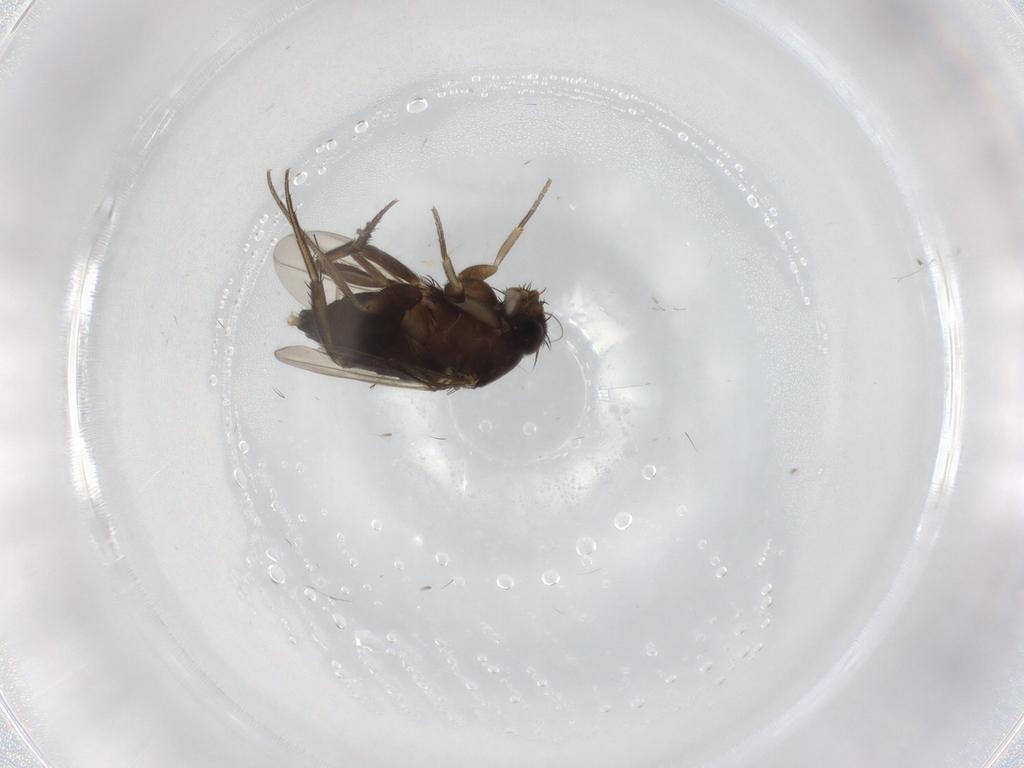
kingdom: Animalia
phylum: Arthropoda
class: Insecta
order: Diptera
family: Phoridae
